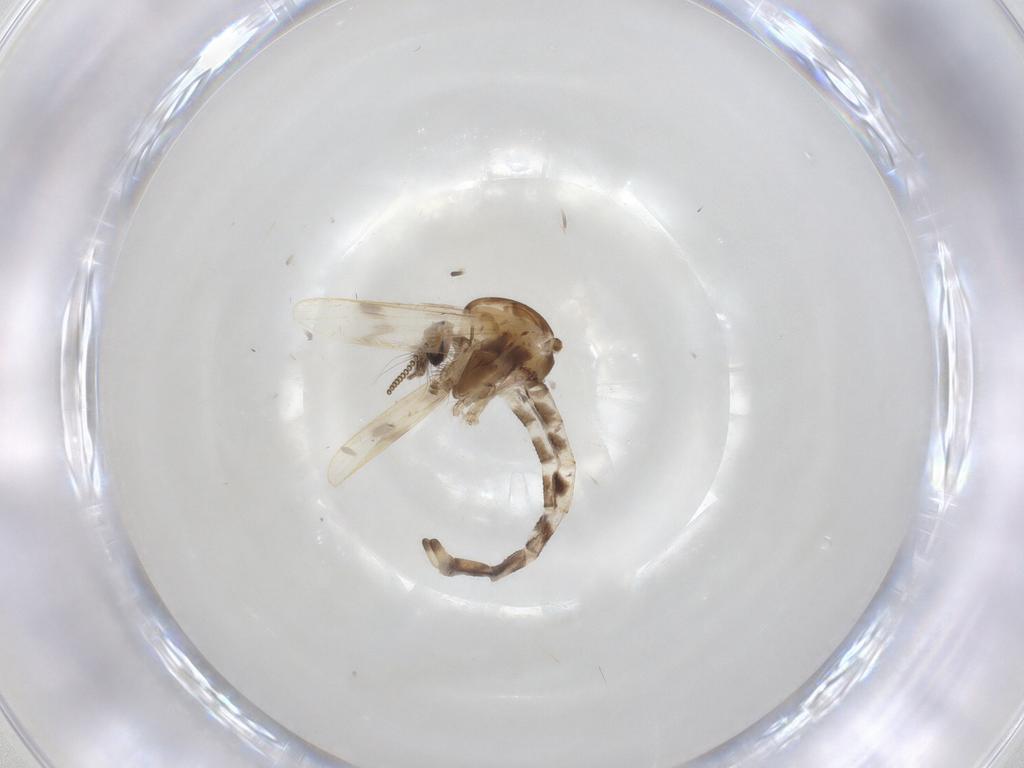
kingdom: Animalia
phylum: Arthropoda
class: Insecta
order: Diptera
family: Chaoboridae
